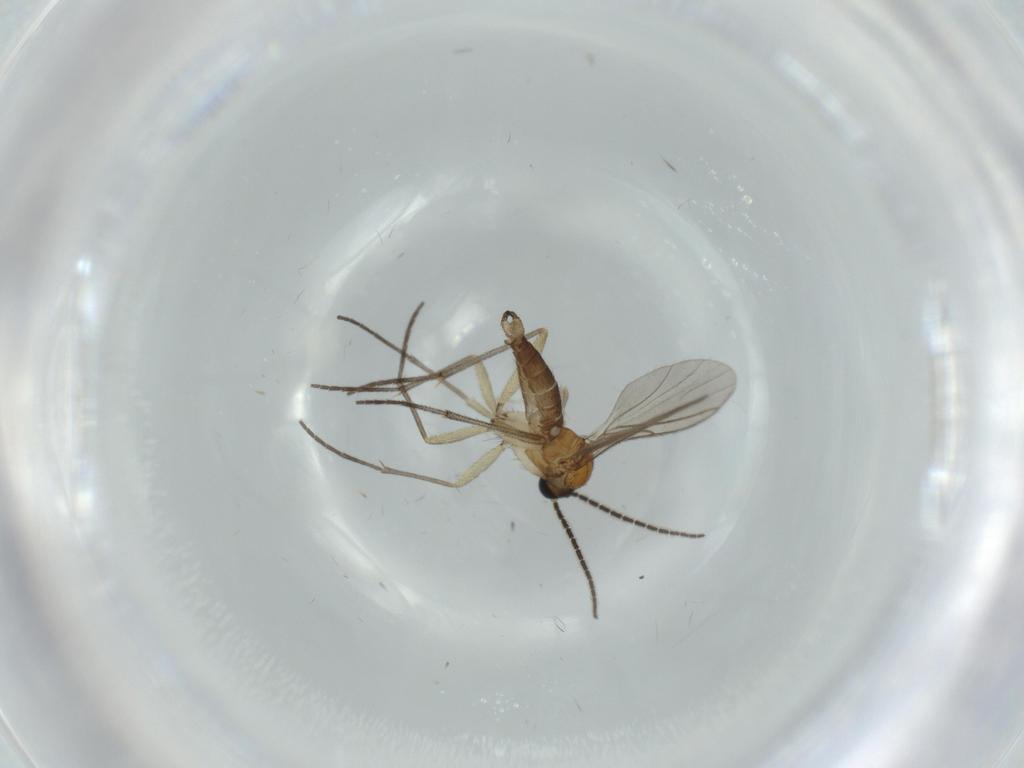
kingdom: Animalia
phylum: Arthropoda
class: Insecta
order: Diptera
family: Sciaridae
